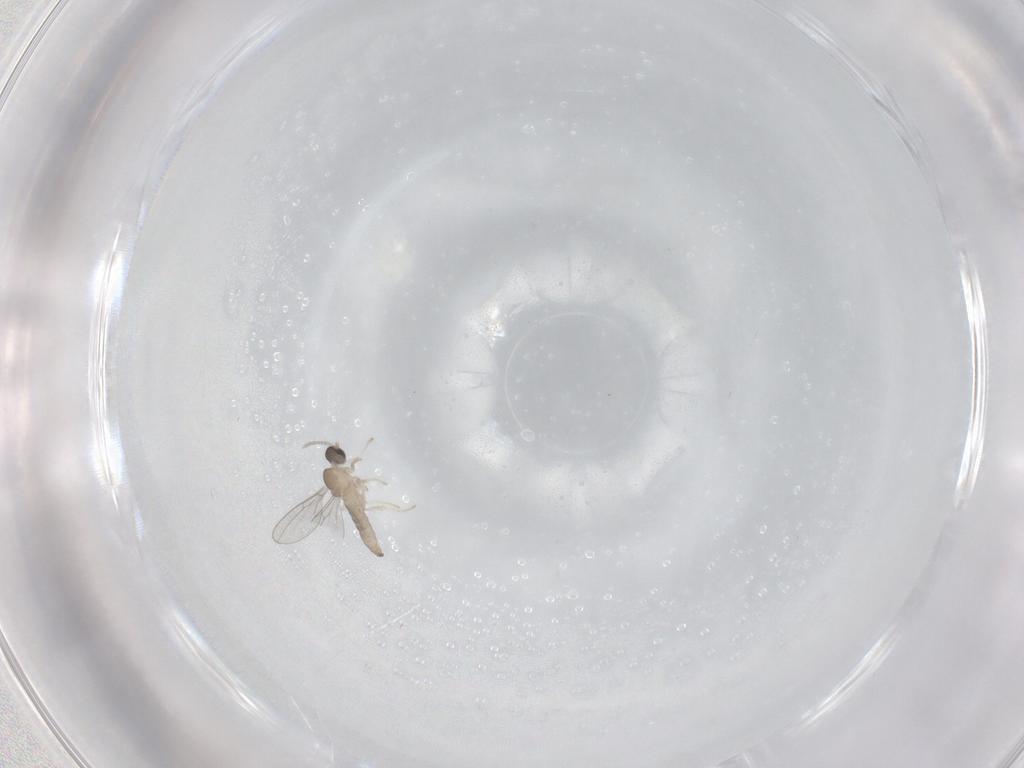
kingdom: Animalia
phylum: Arthropoda
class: Insecta
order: Diptera
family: Cecidomyiidae
